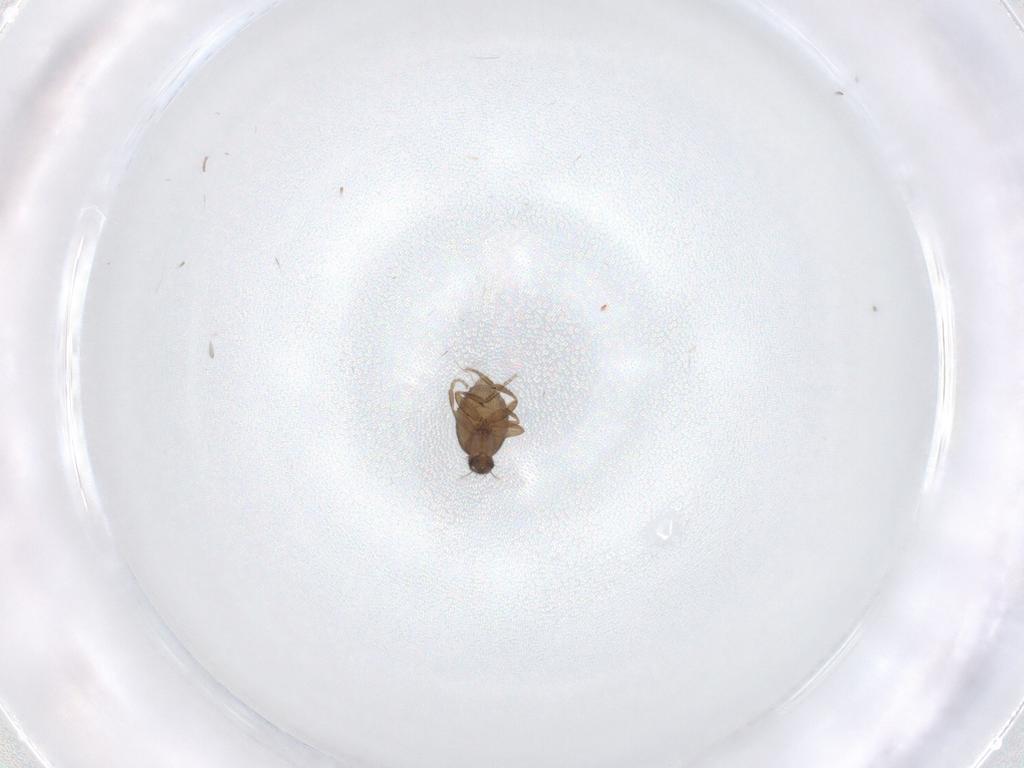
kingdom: Animalia
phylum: Arthropoda
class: Insecta
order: Diptera
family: Phoridae
